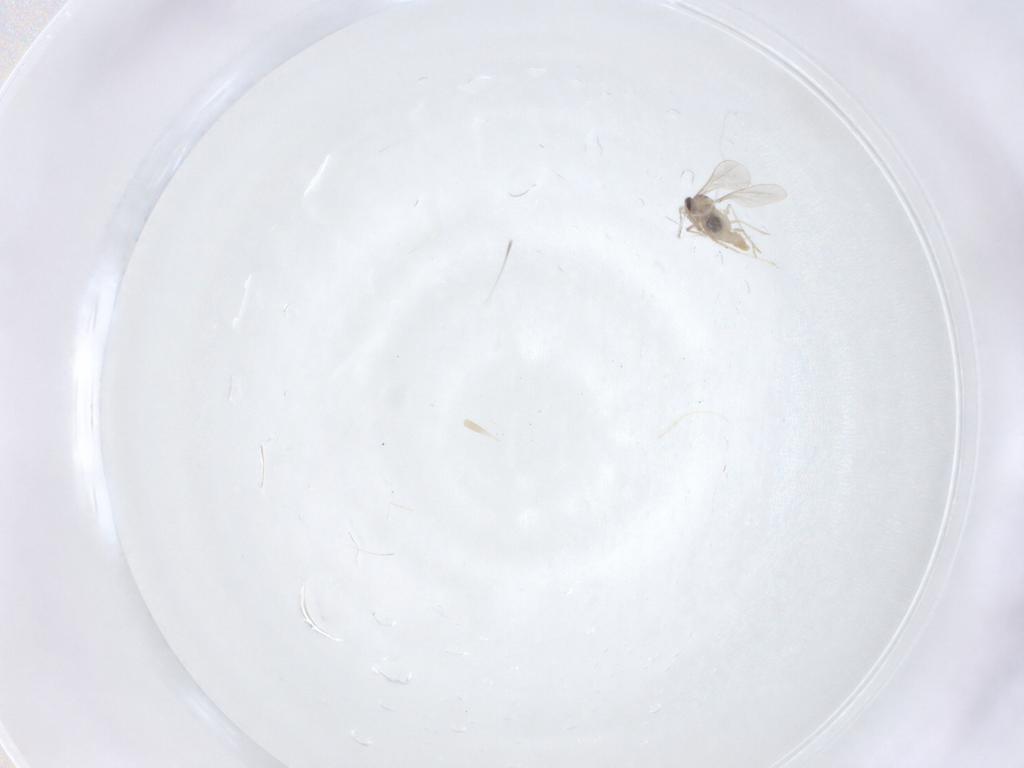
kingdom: Animalia
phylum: Arthropoda
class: Insecta
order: Diptera
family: Cecidomyiidae
